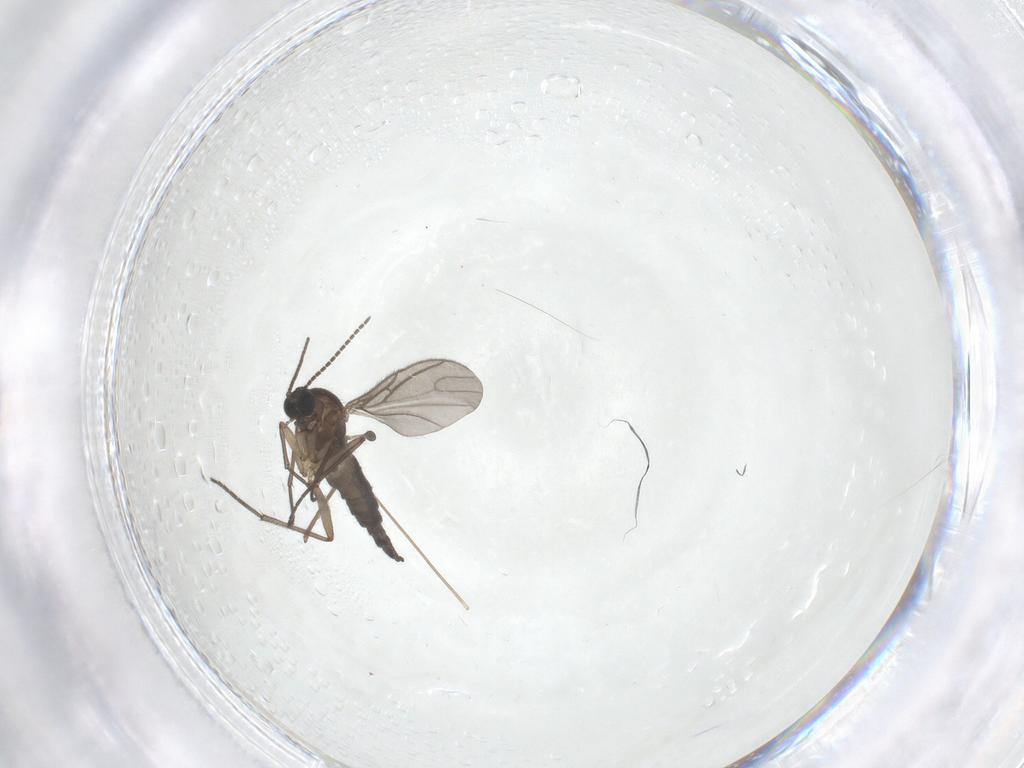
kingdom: Animalia
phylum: Arthropoda
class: Insecta
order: Diptera
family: Sciaridae
